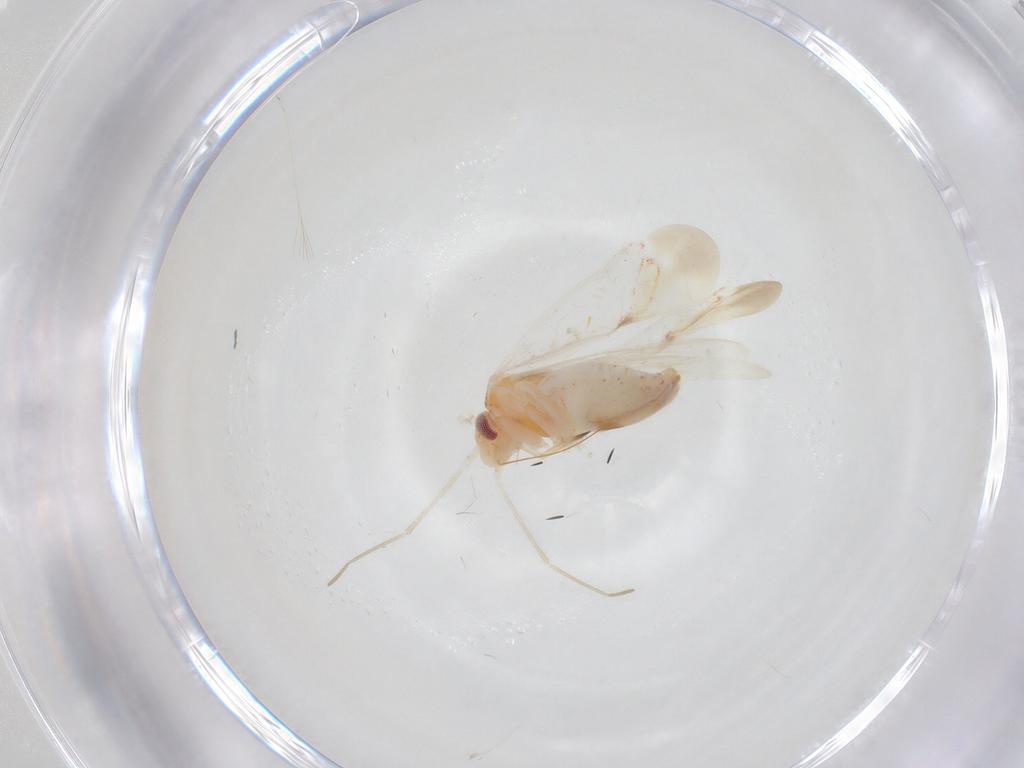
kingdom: Animalia
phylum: Arthropoda
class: Insecta
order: Hemiptera
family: Miridae
